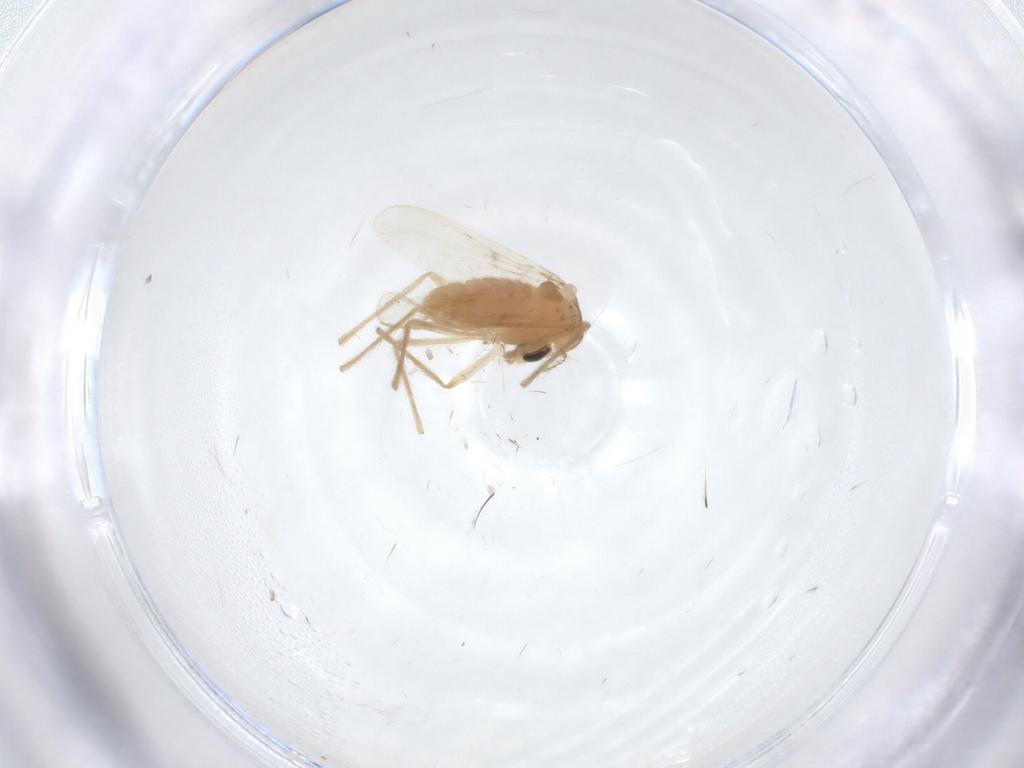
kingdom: Animalia
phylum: Arthropoda
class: Insecta
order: Diptera
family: Chironomidae
